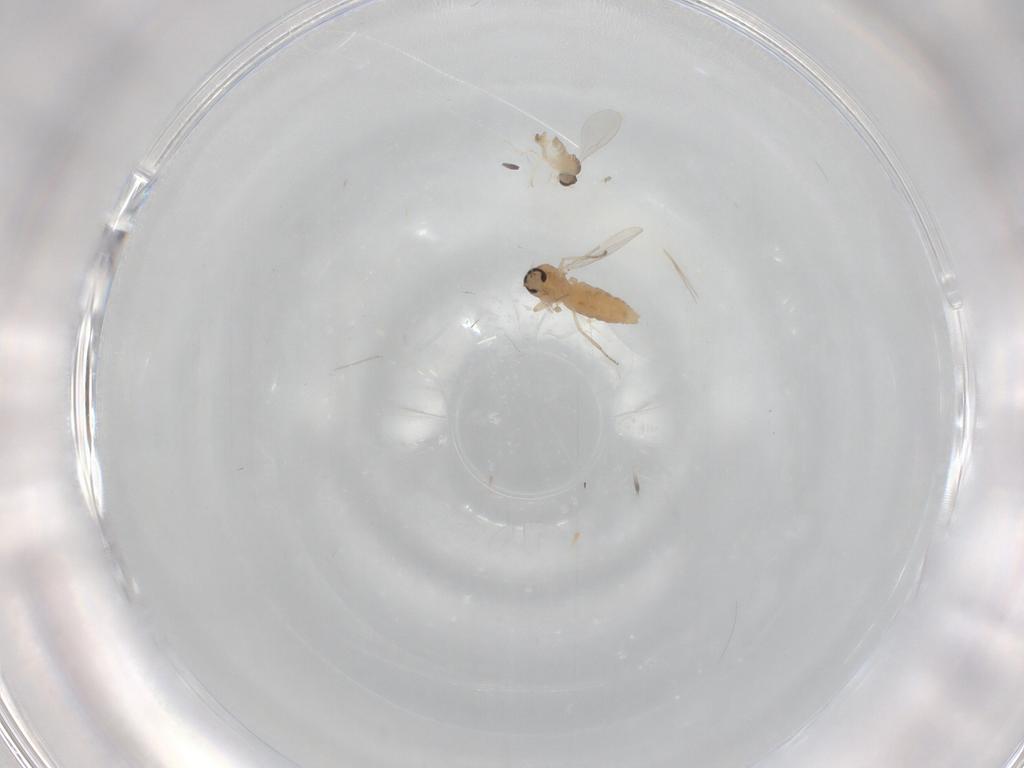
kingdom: Animalia
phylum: Arthropoda
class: Insecta
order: Diptera
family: Ceratopogonidae
